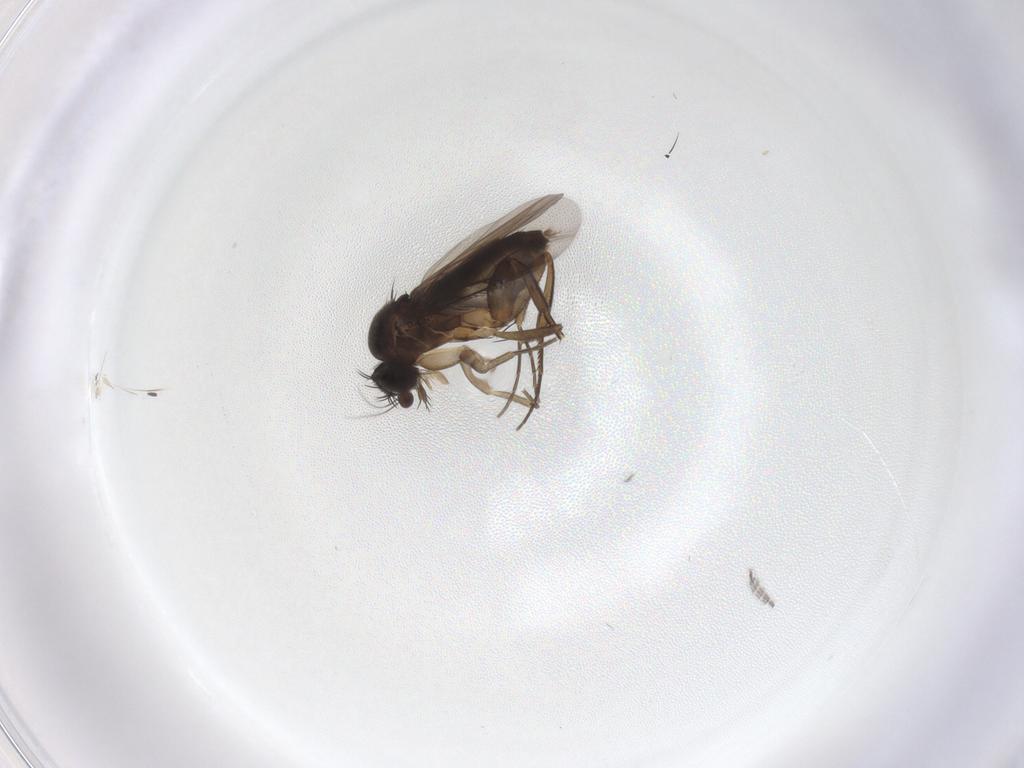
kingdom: Animalia
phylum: Arthropoda
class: Insecta
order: Diptera
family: Phoridae
